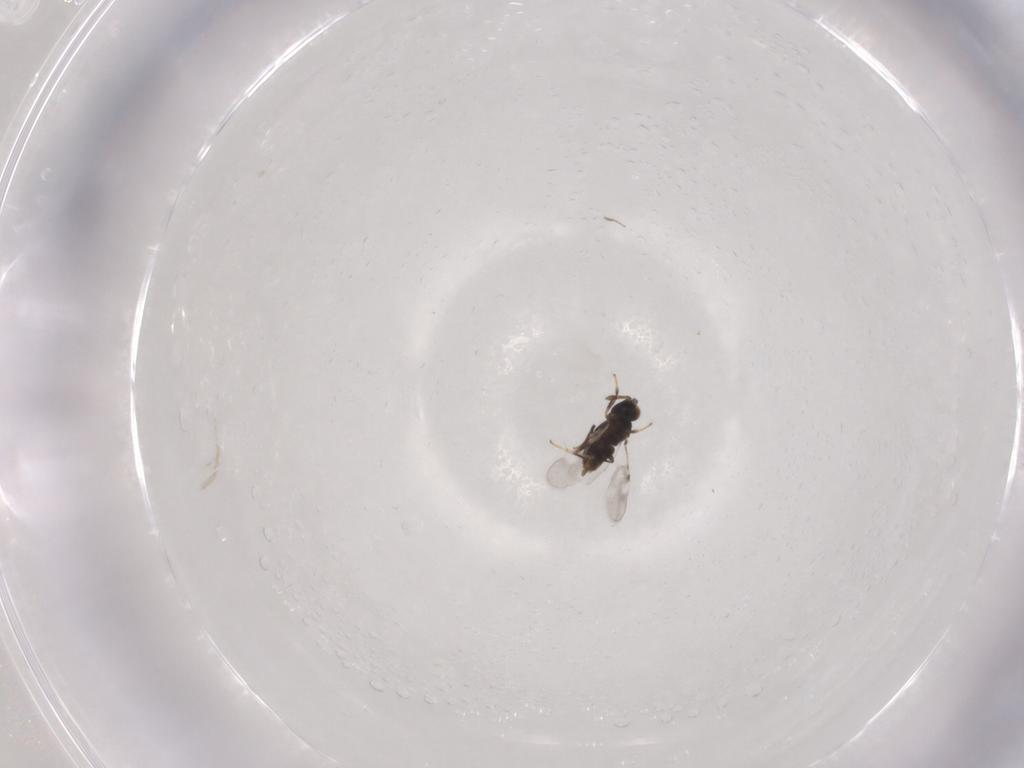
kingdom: Animalia
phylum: Arthropoda
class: Insecta
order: Hymenoptera
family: Encyrtidae
